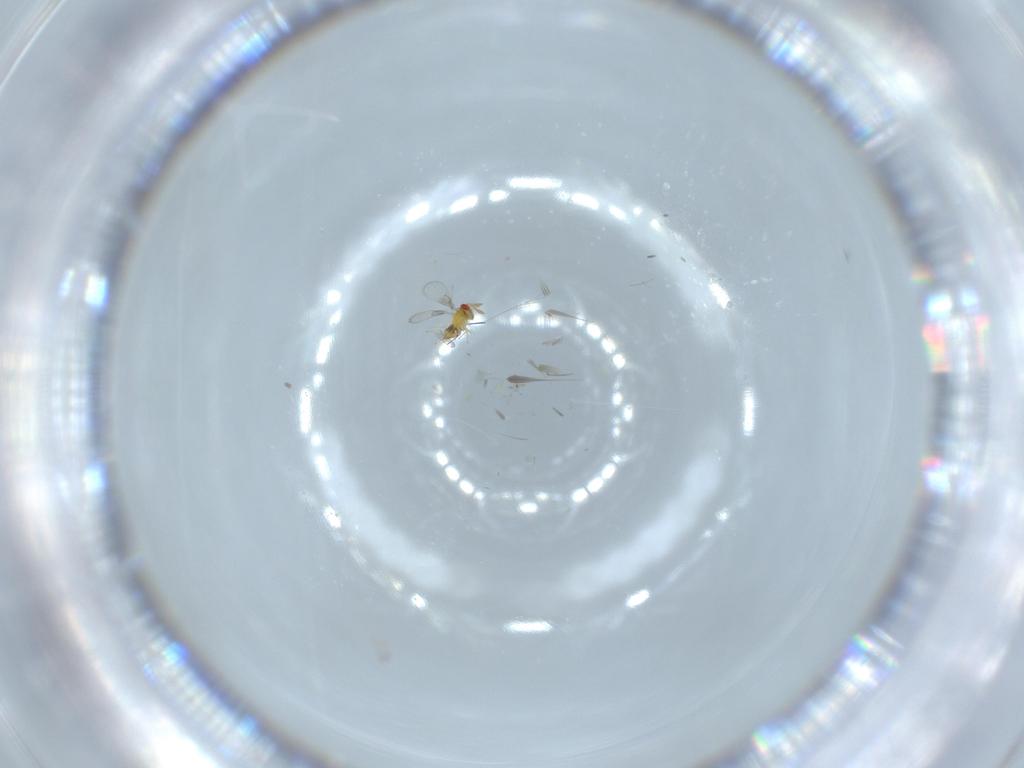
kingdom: Animalia
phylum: Arthropoda
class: Insecta
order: Hymenoptera
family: Trichogrammatidae
